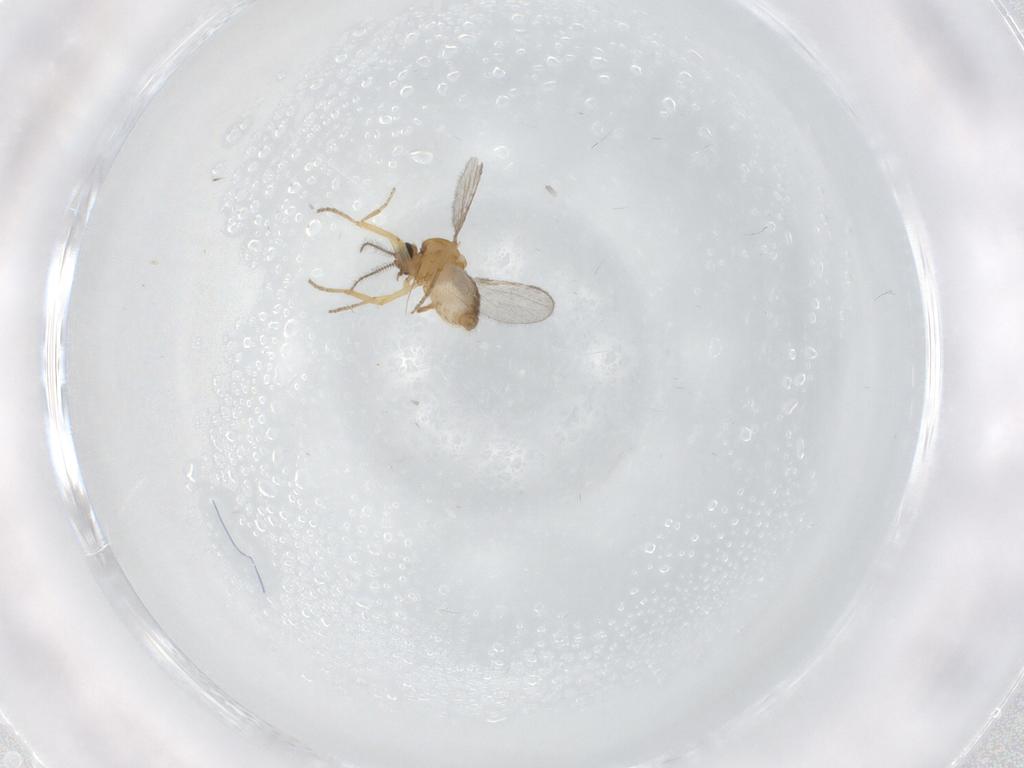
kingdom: Animalia
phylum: Arthropoda
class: Insecta
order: Diptera
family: Ceratopogonidae
